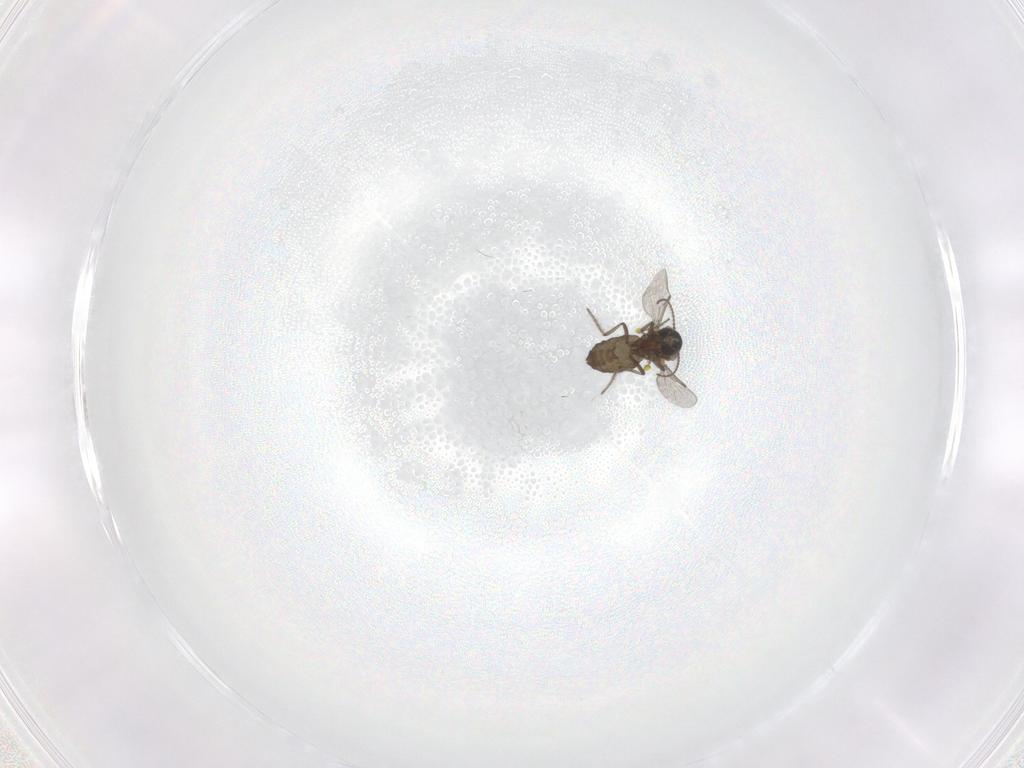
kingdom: Animalia
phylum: Arthropoda
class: Insecta
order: Diptera
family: Ceratopogonidae
